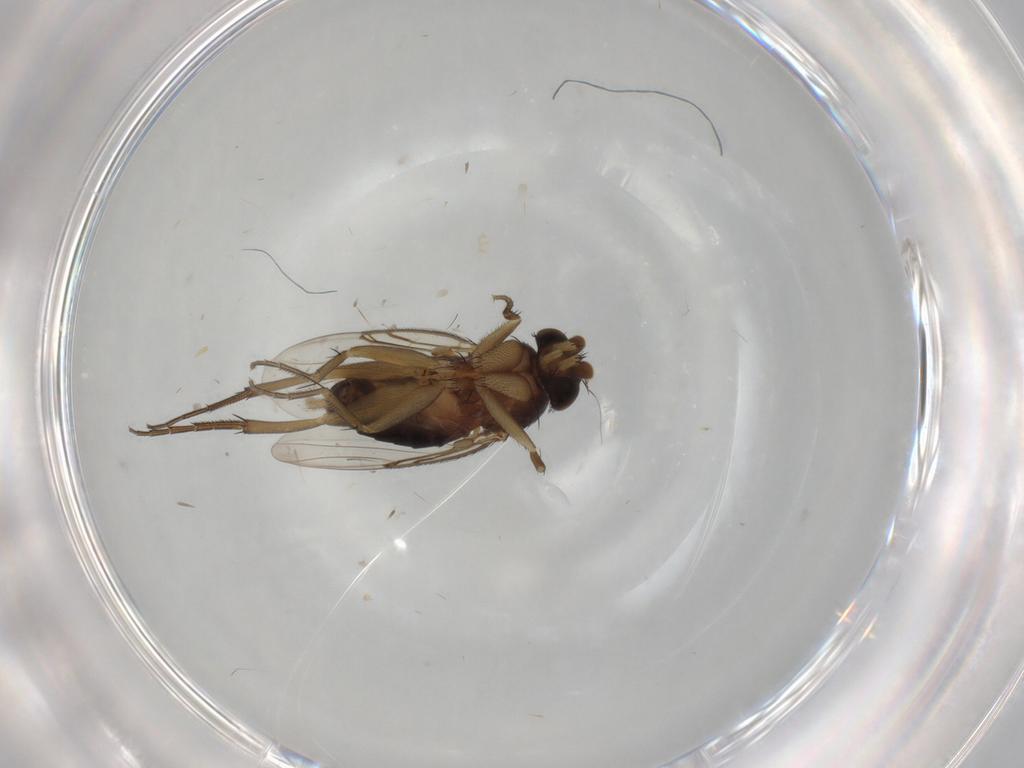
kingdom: Animalia
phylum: Arthropoda
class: Insecta
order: Diptera
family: Phoridae
